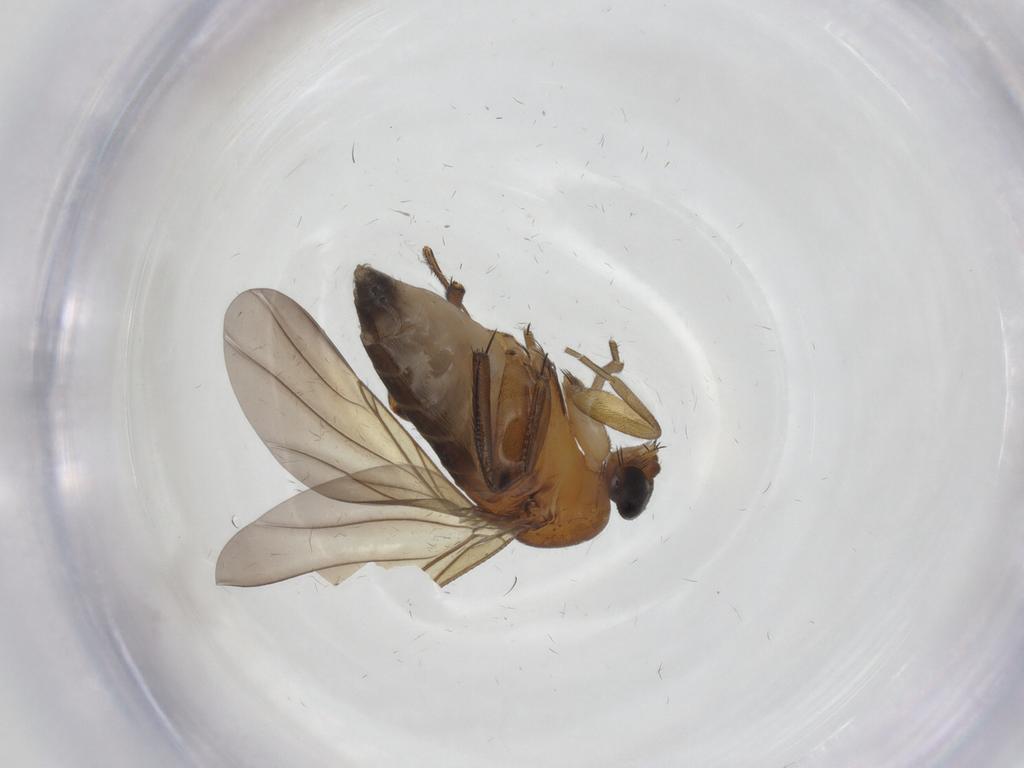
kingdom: Animalia
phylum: Arthropoda
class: Insecta
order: Diptera
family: Phoridae
